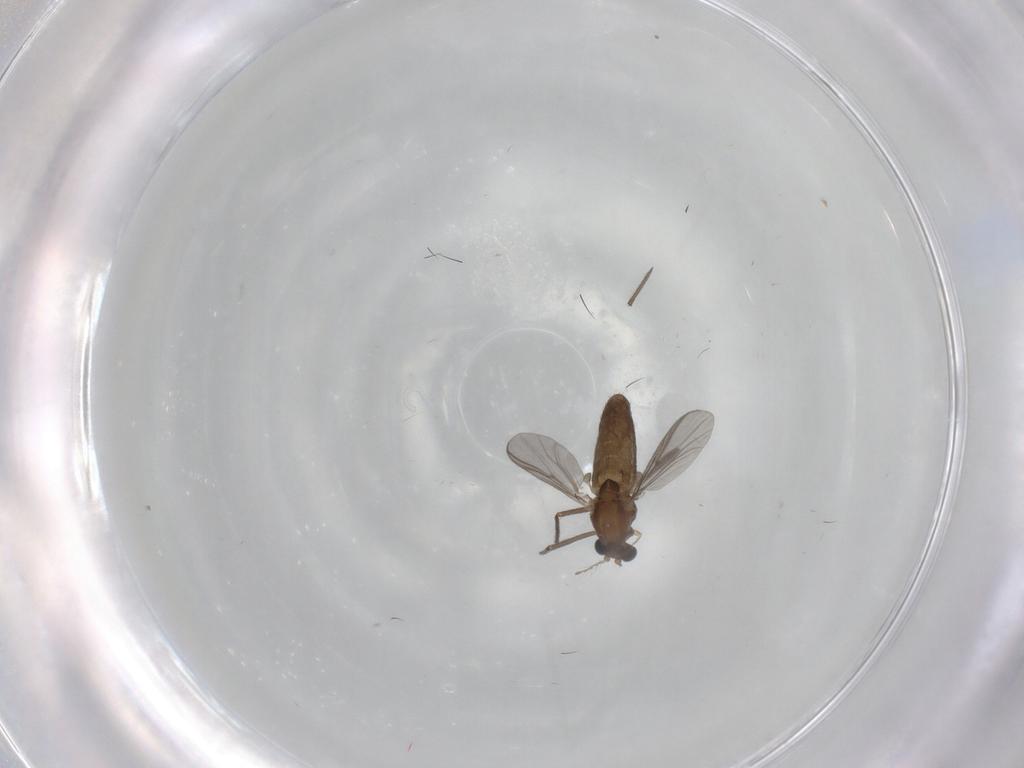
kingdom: Animalia
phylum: Arthropoda
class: Insecta
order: Diptera
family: Chironomidae
